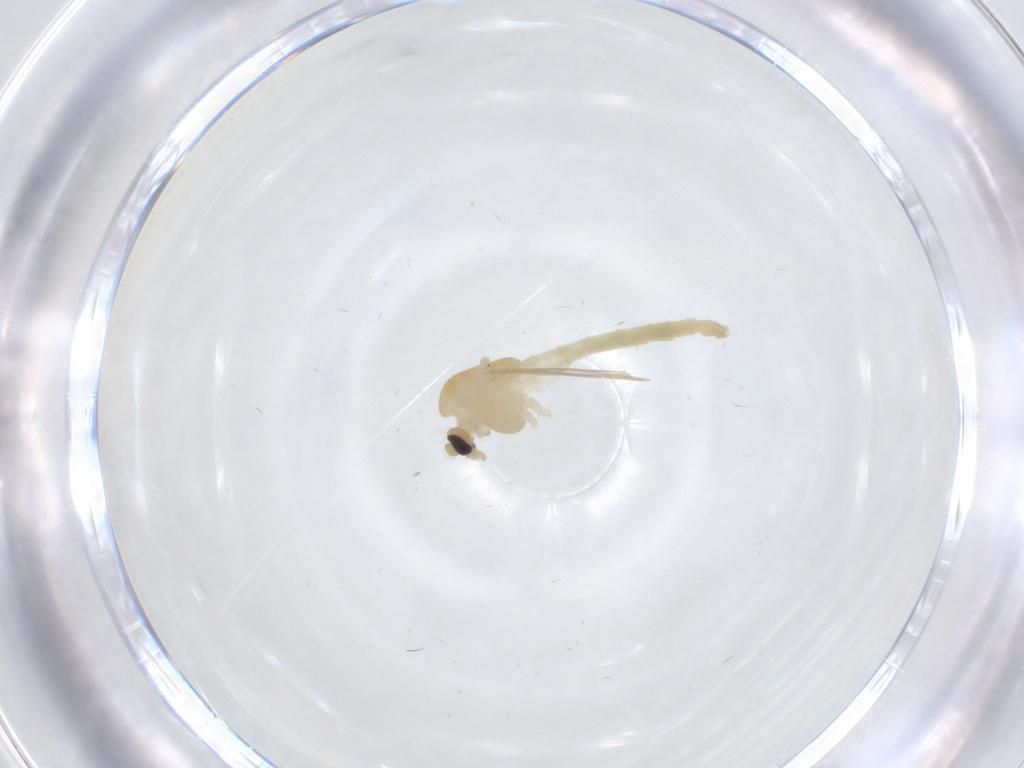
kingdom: Animalia
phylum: Arthropoda
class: Insecta
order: Diptera
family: Chironomidae
